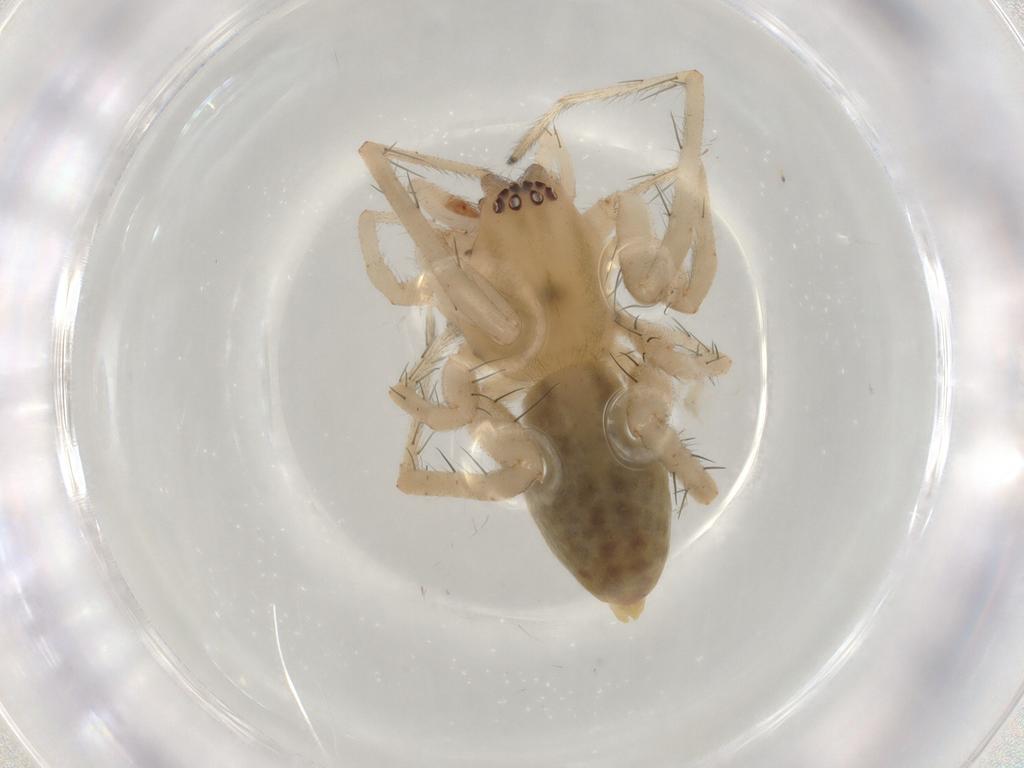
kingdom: Animalia
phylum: Arthropoda
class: Arachnida
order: Araneae
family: Anyphaenidae
